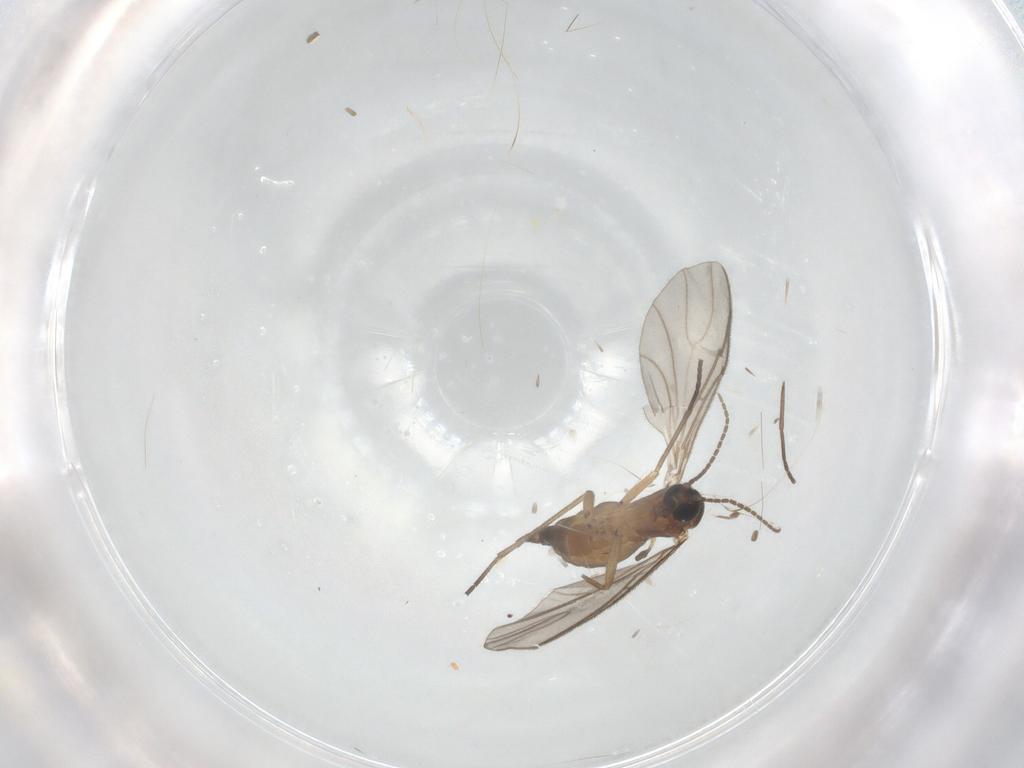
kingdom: Animalia
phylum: Arthropoda
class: Insecta
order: Diptera
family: Sciaridae
